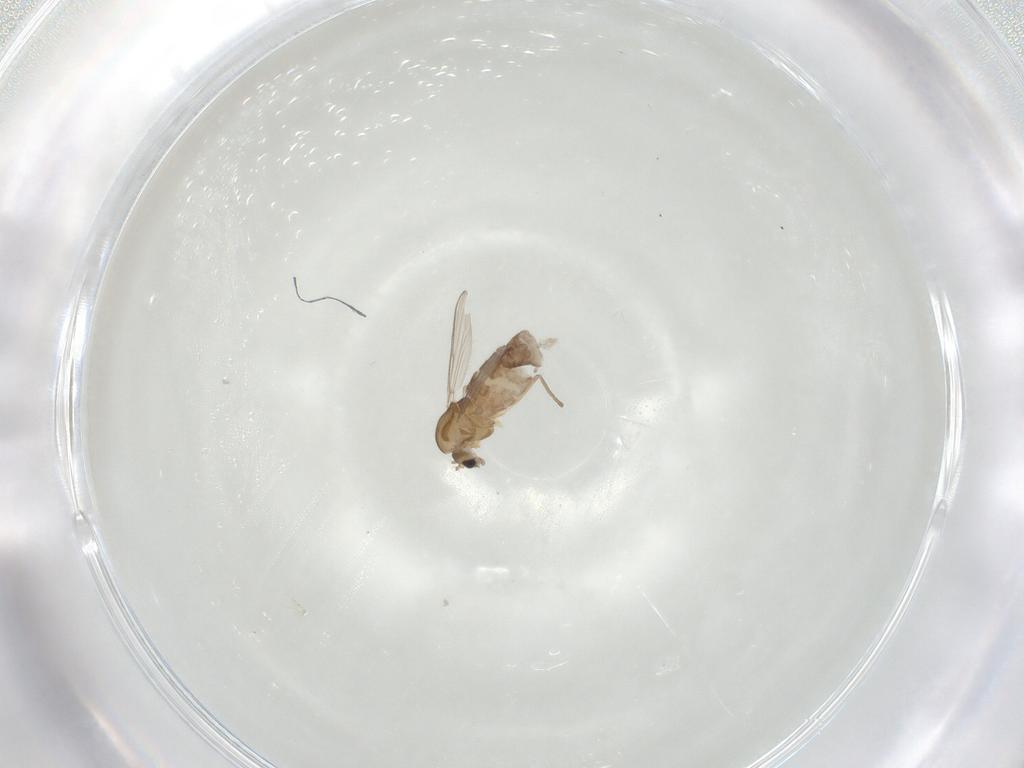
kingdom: Animalia
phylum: Arthropoda
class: Insecta
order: Diptera
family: Chironomidae
